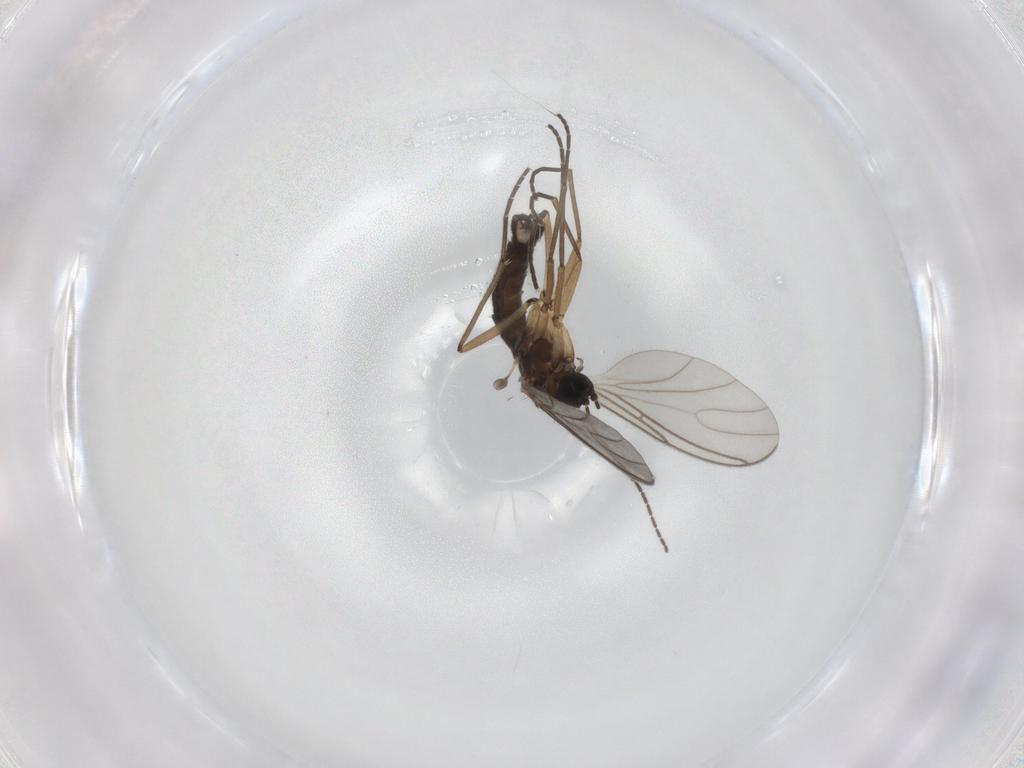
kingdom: Animalia
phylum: Arthropoda
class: Insecta
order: Diptera
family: Sciaridae
